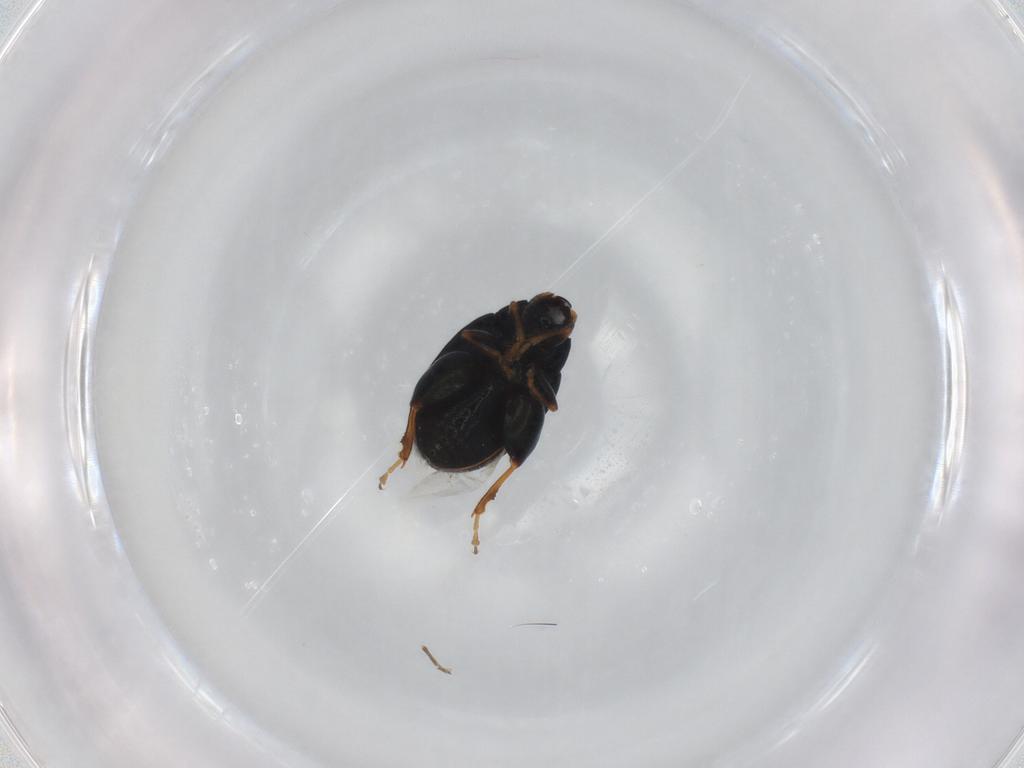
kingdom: Animalia
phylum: Arthropoda
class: Insecta
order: Coleoptera
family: Chrysomelidae
